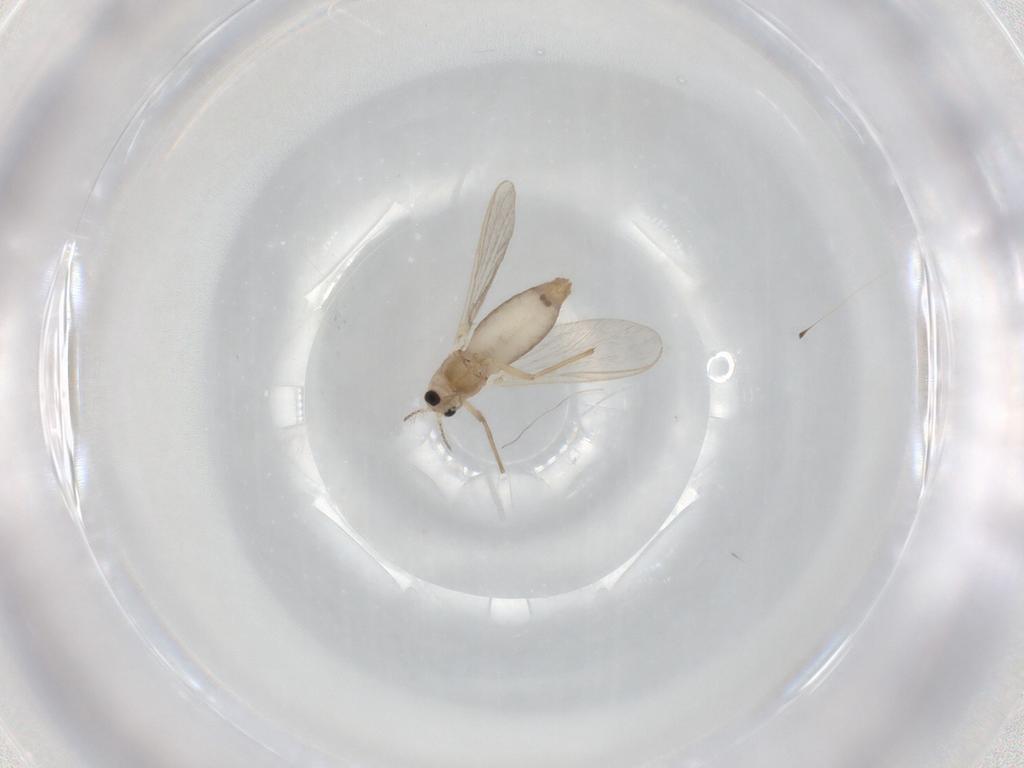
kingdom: Animalia
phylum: Arthropoda
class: Insecta
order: Diptera
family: Chironomidae
